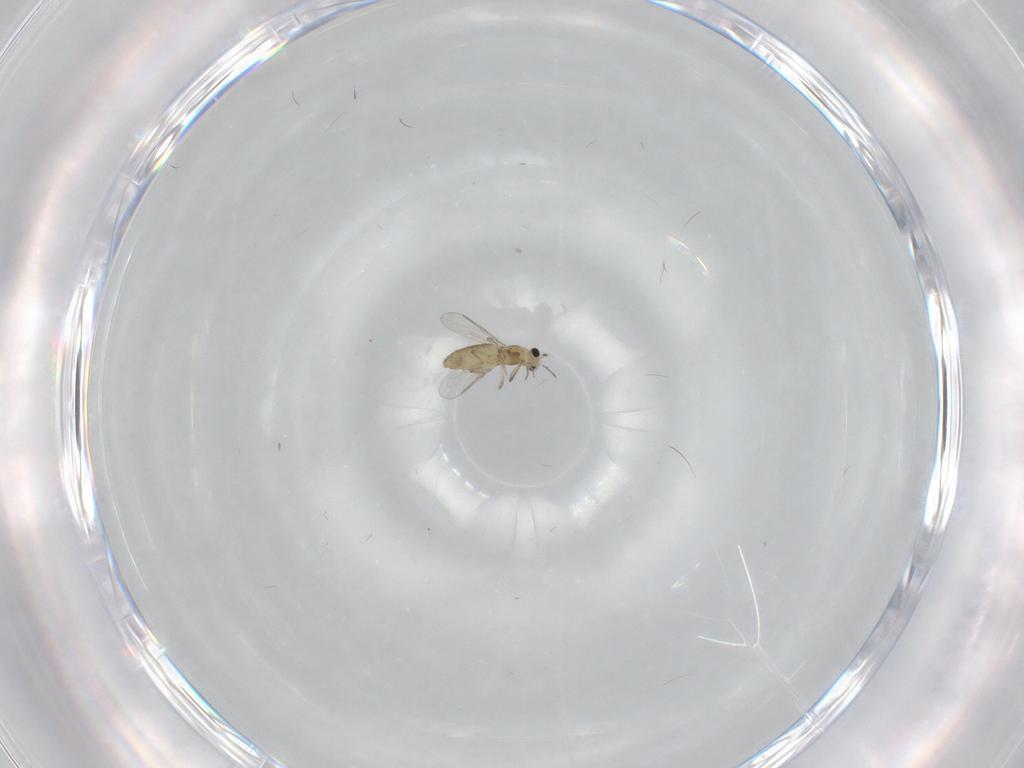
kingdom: Animalia
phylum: Arthropoda
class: Insecta
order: Diptera
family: Chironomidae
